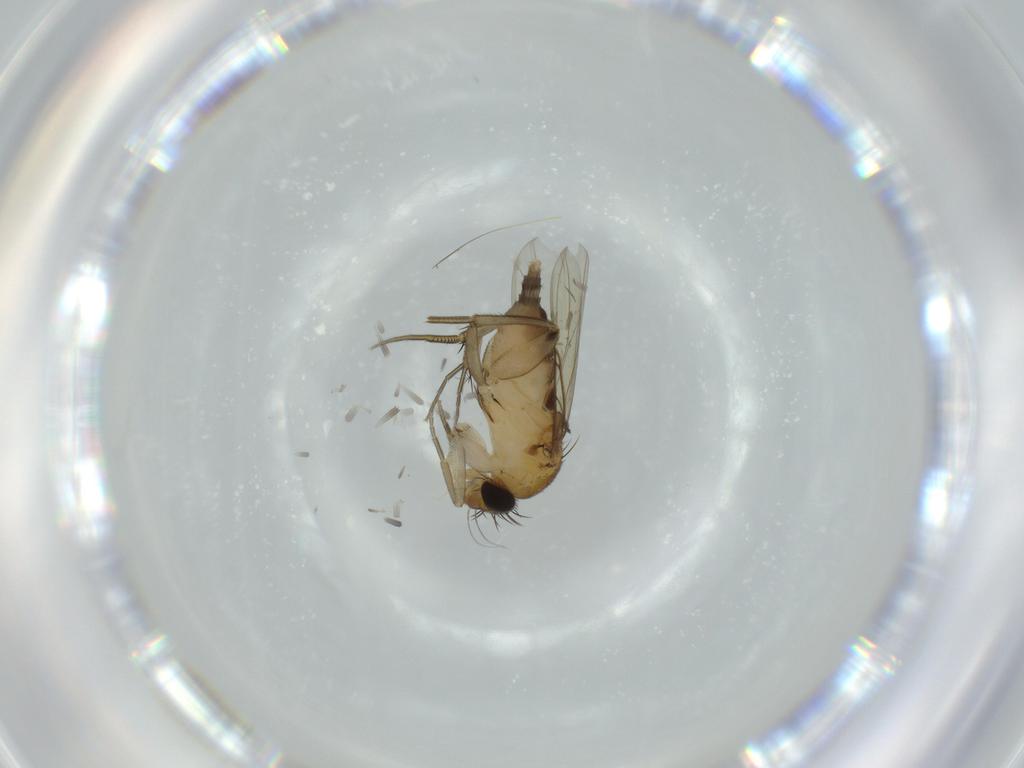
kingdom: Animalia
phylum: Arthropoda
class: Insecta
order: Diptera
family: Phoridae
